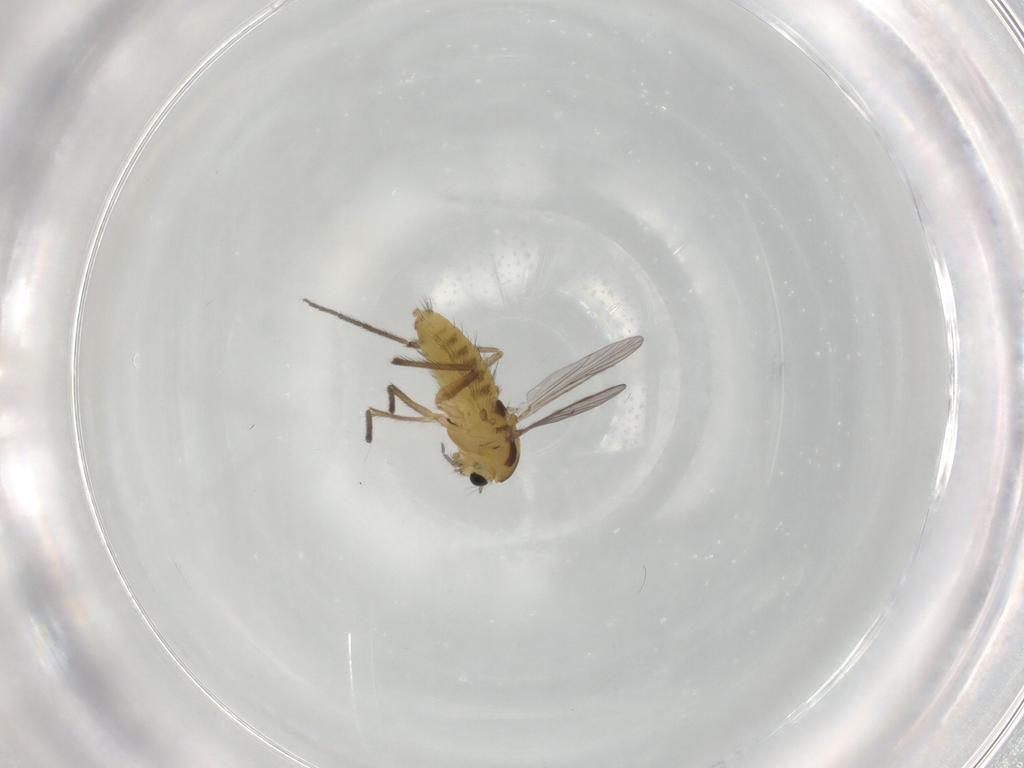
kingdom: Animalia
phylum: Arthropoda
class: Insecta
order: Diptera
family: Chironomidae
